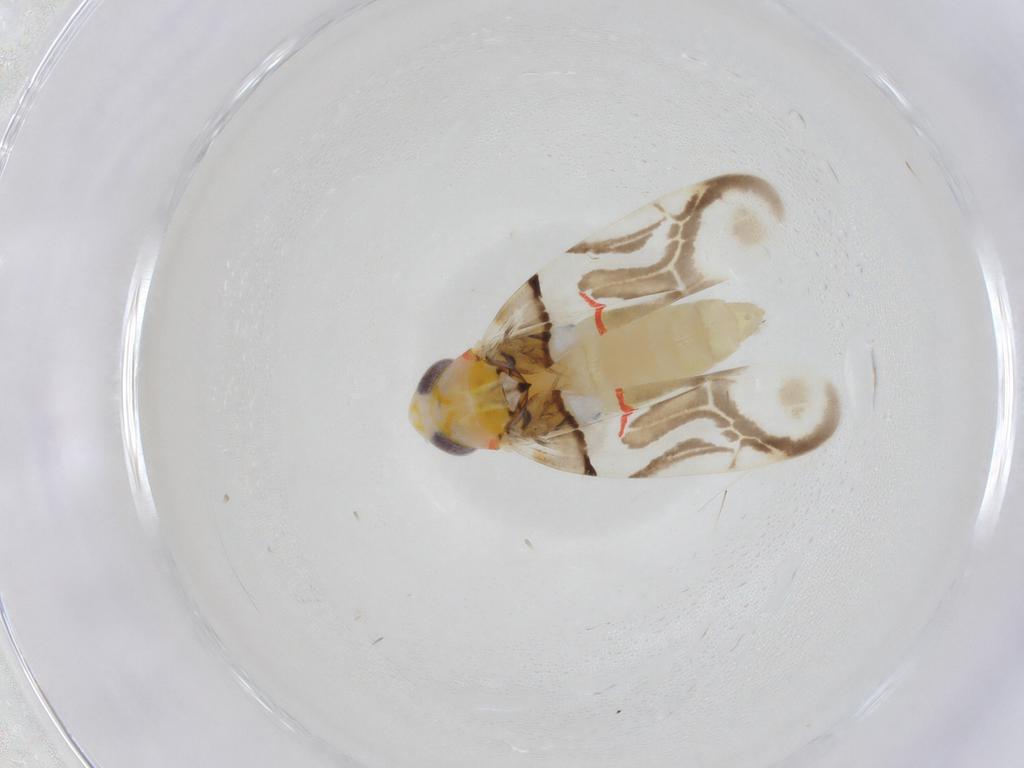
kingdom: Animalia
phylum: Arthropoda
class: Insecta
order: Hemiptera
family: Cicadellidae
